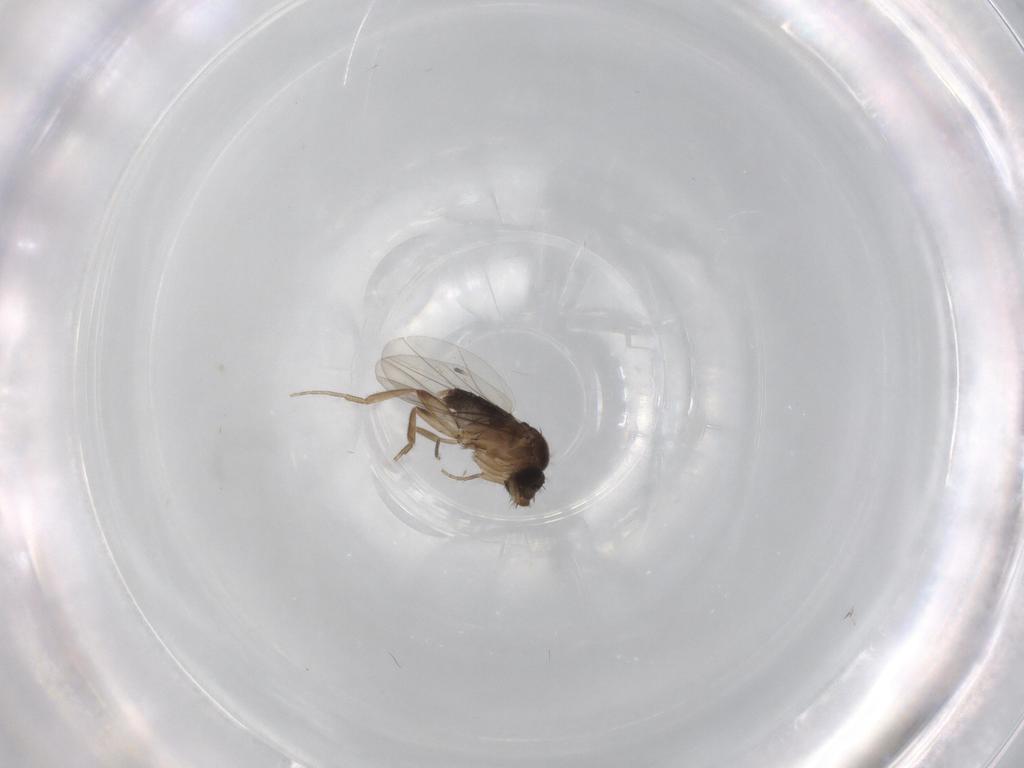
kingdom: Animalia
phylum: Arthropoda
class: Insecta
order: Diptera
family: Phoridae
